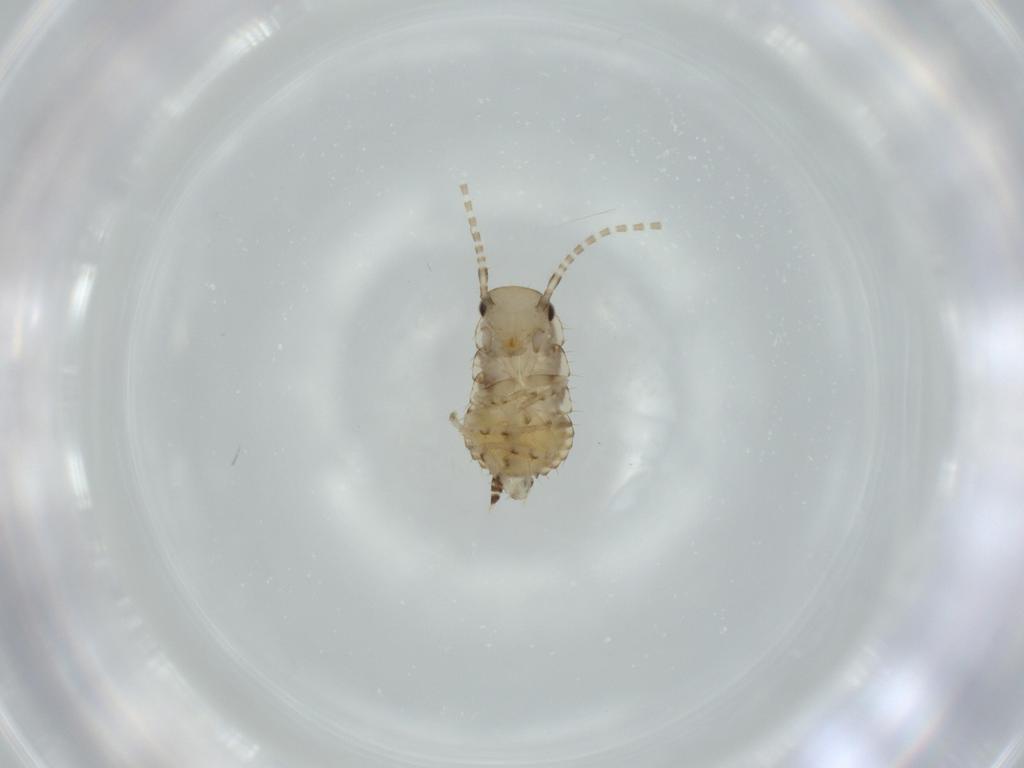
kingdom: Animalia
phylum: Arthropoda
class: Insecta
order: Blattodea
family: Ectobiidae
